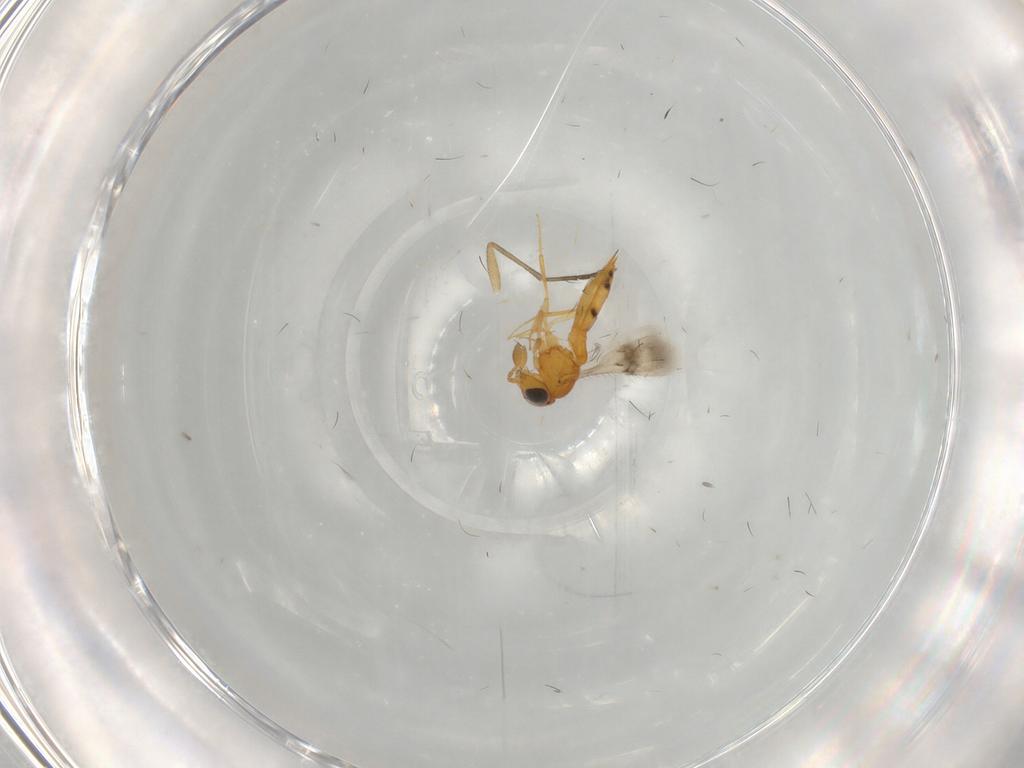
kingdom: Animalia
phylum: Arthropoda
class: Insecta
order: Hymenoptera
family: Scelionidae
